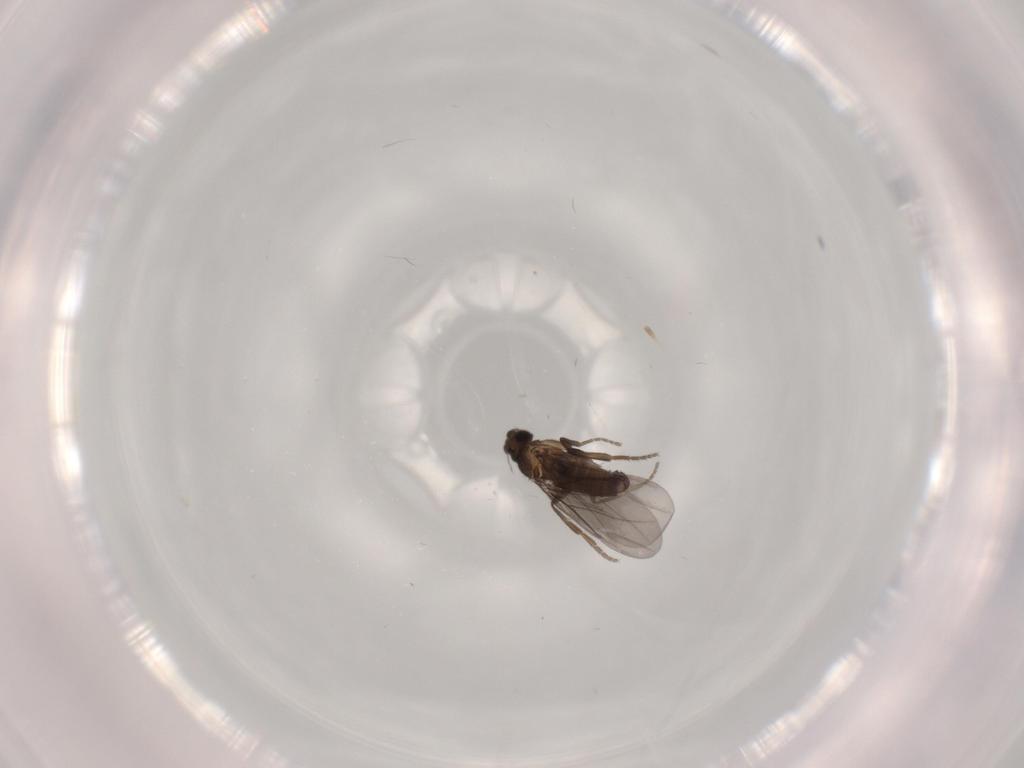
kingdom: Animalia
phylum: Arthropoda
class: Insecta
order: Diptera
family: Phoridae
